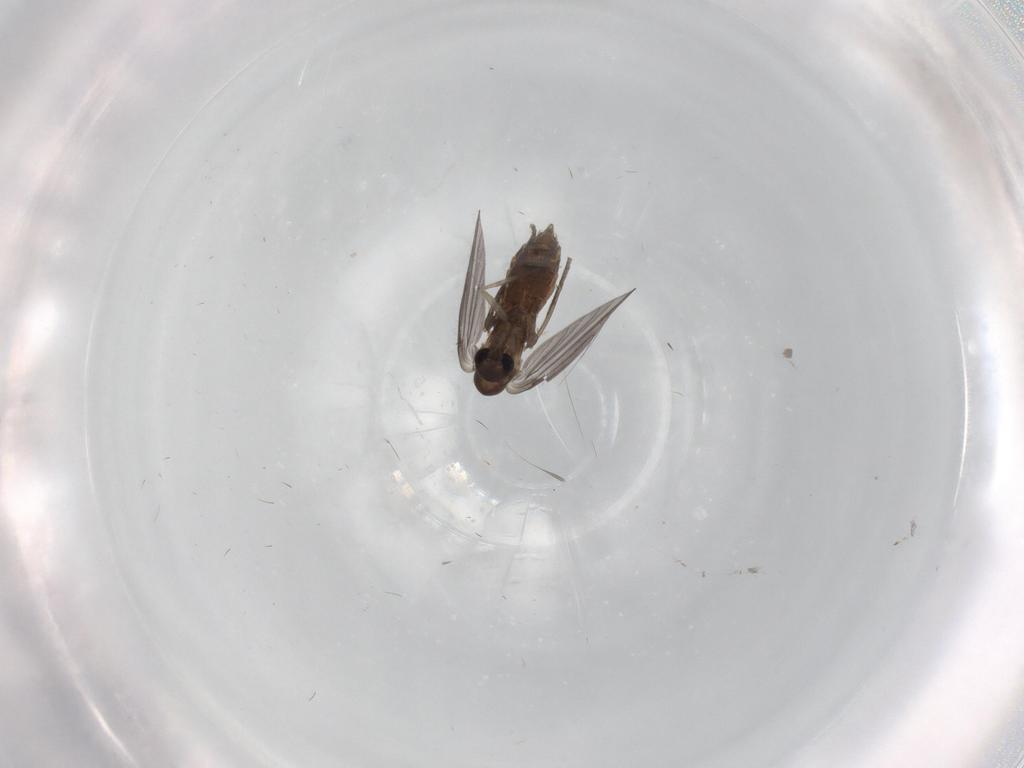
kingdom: Animalia
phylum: Arthropoda
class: Insecta
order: Diptera
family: Psychodidae
